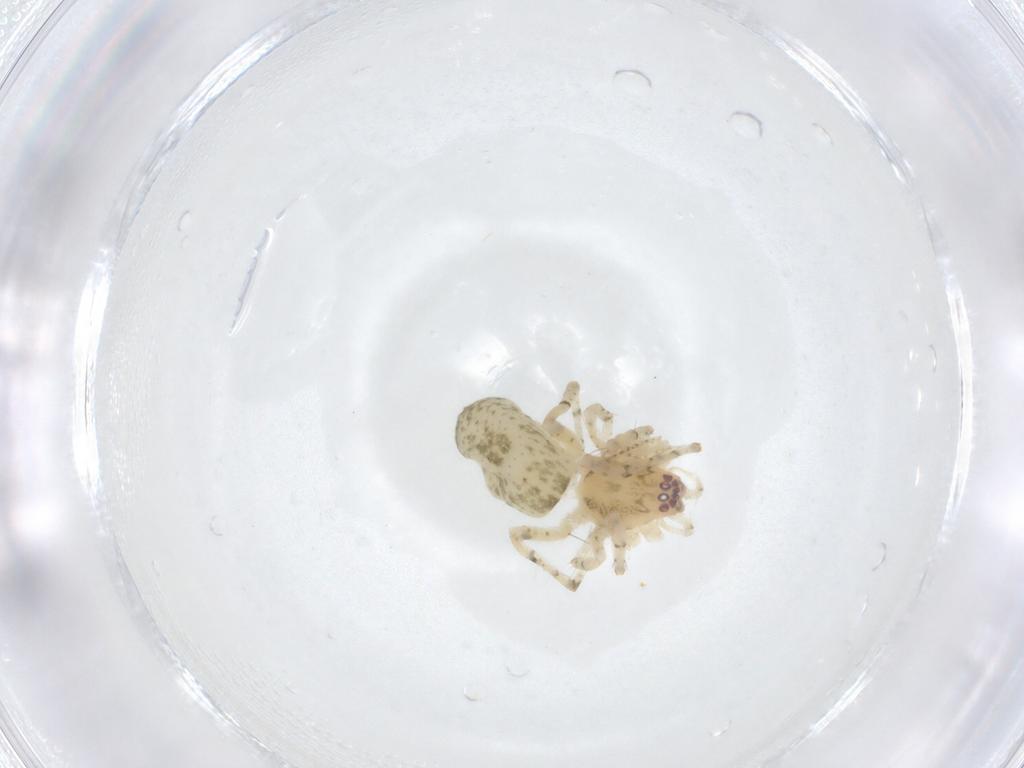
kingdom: Animalia
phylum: Arthropoda
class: Arachnida
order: Araneae
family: Anyphaenidae
